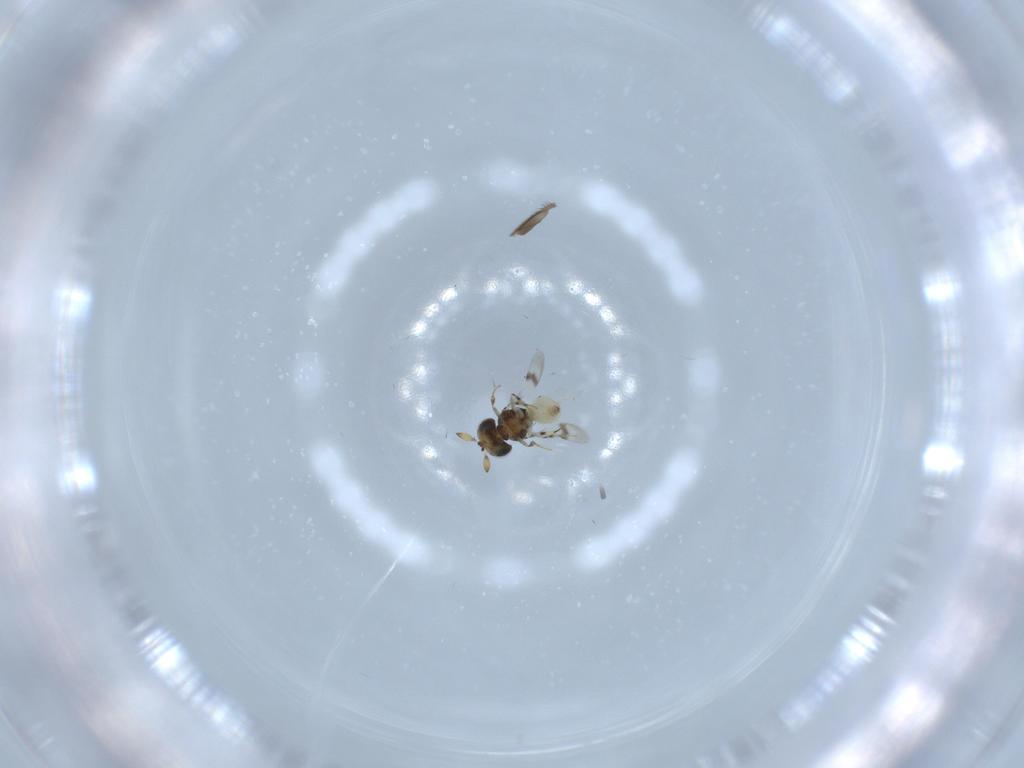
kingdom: Animalia
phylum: Arthropoda
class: Insecta
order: Hymenoptera
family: Scelionidae
